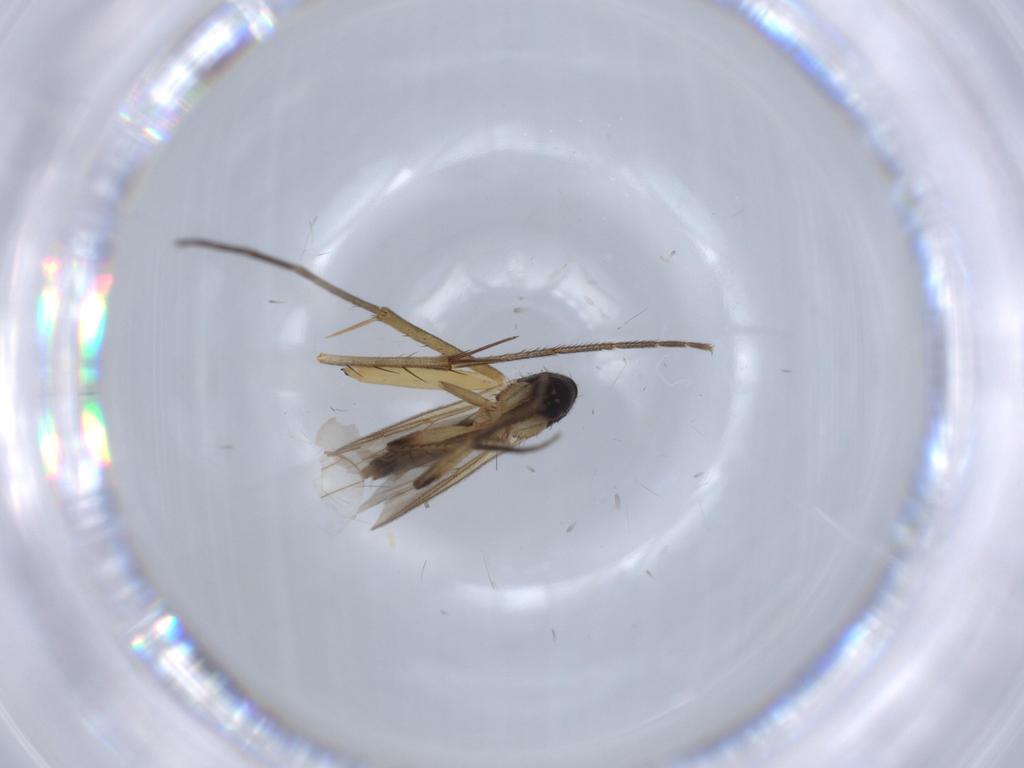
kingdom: Animalia
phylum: Arthropoda
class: Insecta
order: Diptera
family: Mycetophilidae
